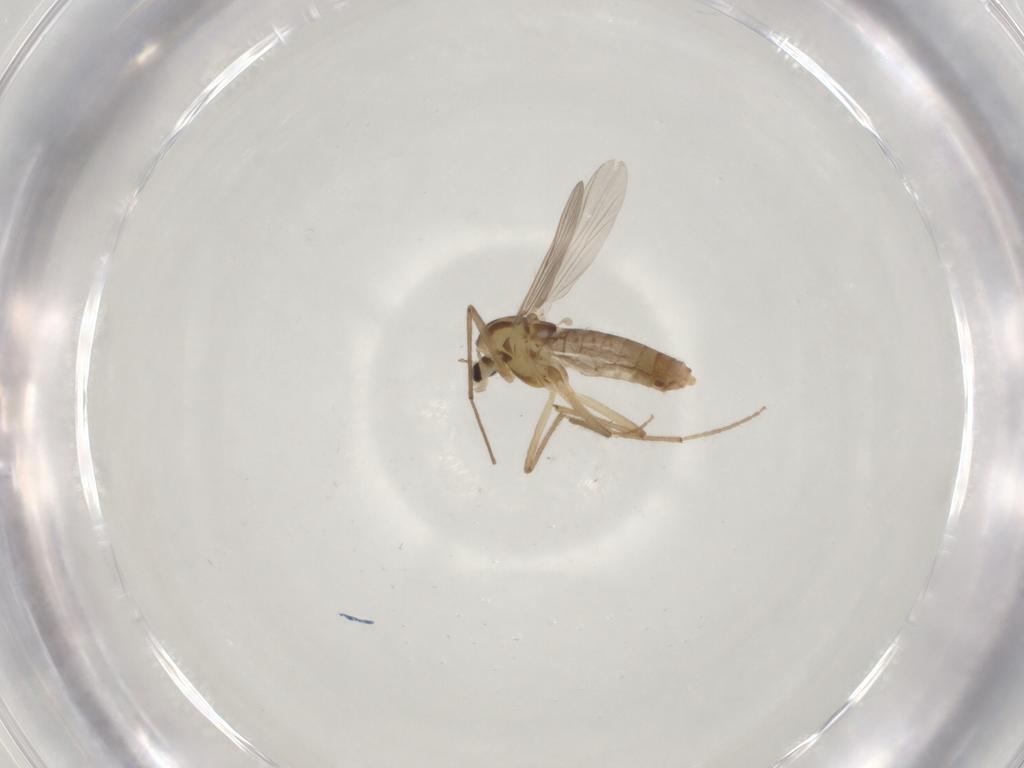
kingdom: Animalia
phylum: Arthropoda
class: Insecta
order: Diptera
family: Chironomidae
